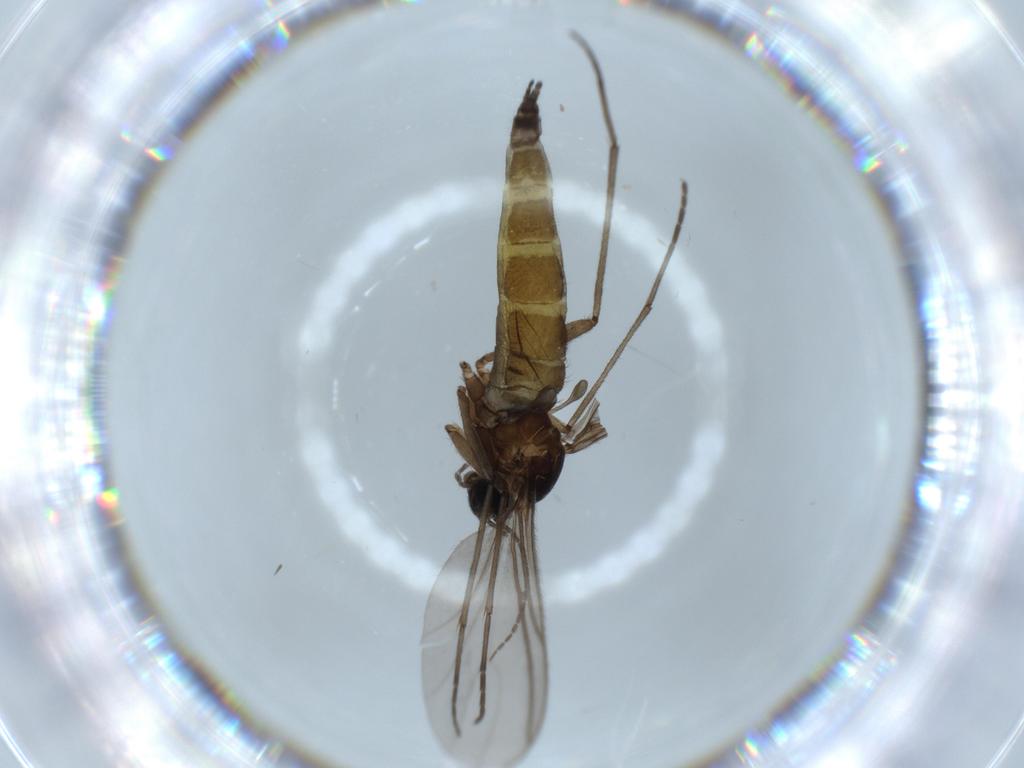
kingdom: Animalia
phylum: Arthropoda
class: Insecta
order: Diptera
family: Sciaridae
